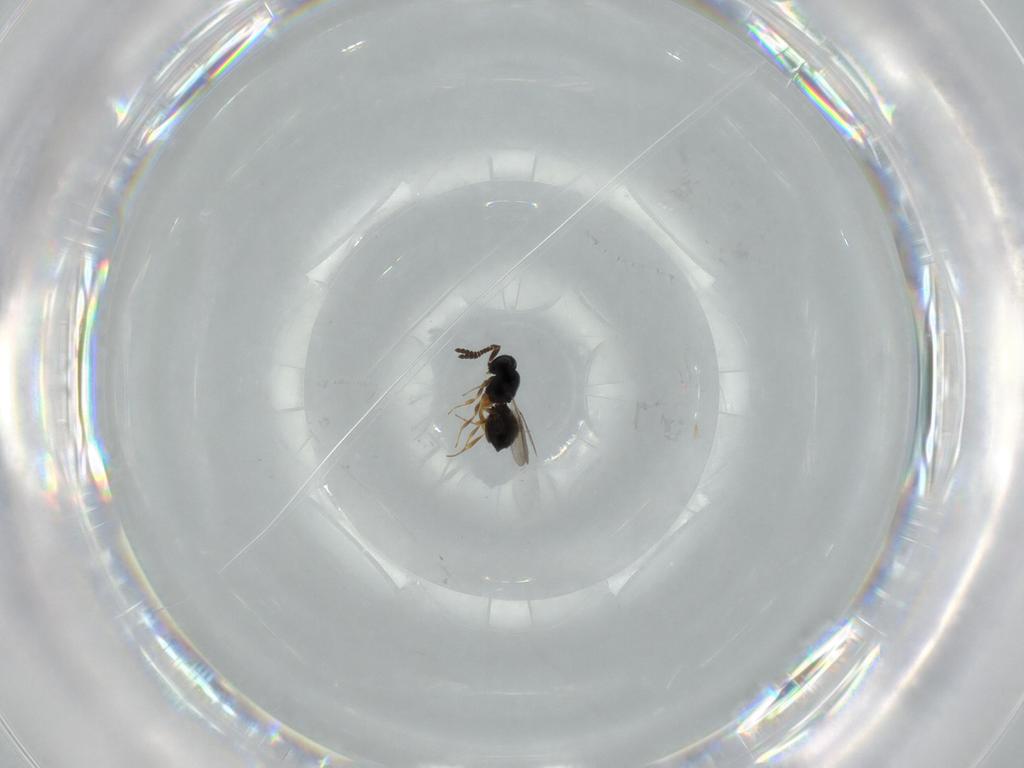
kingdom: Animalia
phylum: Arthropoda
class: Insecta
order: Hymenoptera
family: Scelionidae
